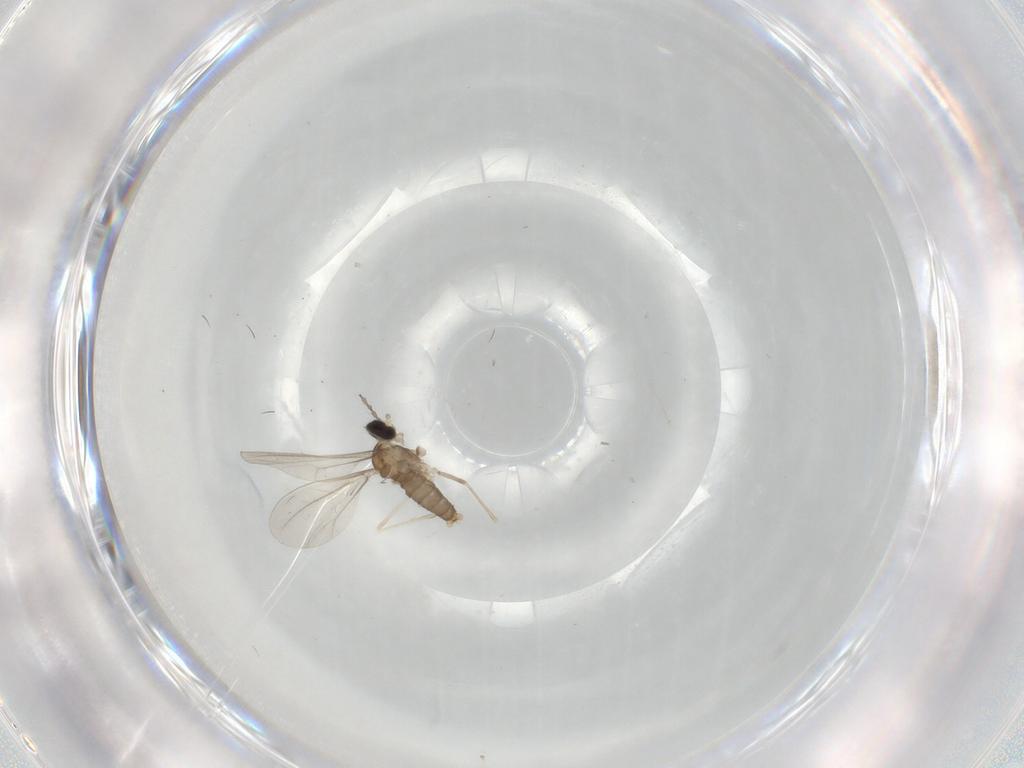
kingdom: Animalia
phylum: Arthropoda
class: Insecta
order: Diptera
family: Cecidomyiidae
